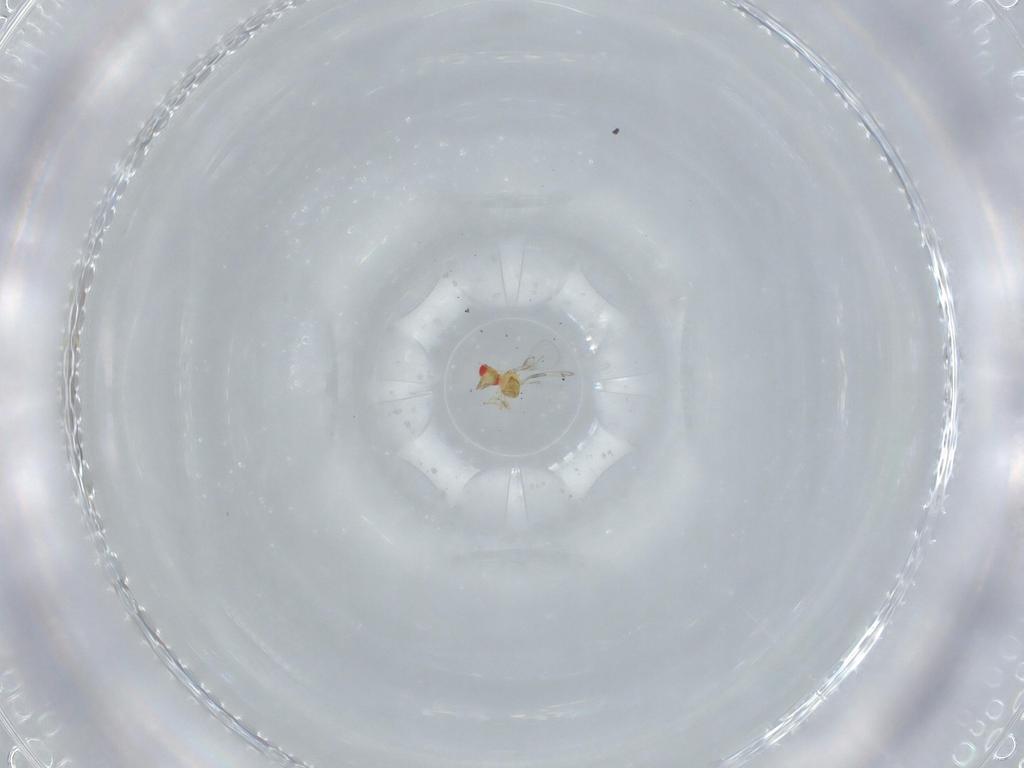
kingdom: Animalia
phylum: Arthropoda
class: Insecta
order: Hymenoptera
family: Trichogrammatidae
